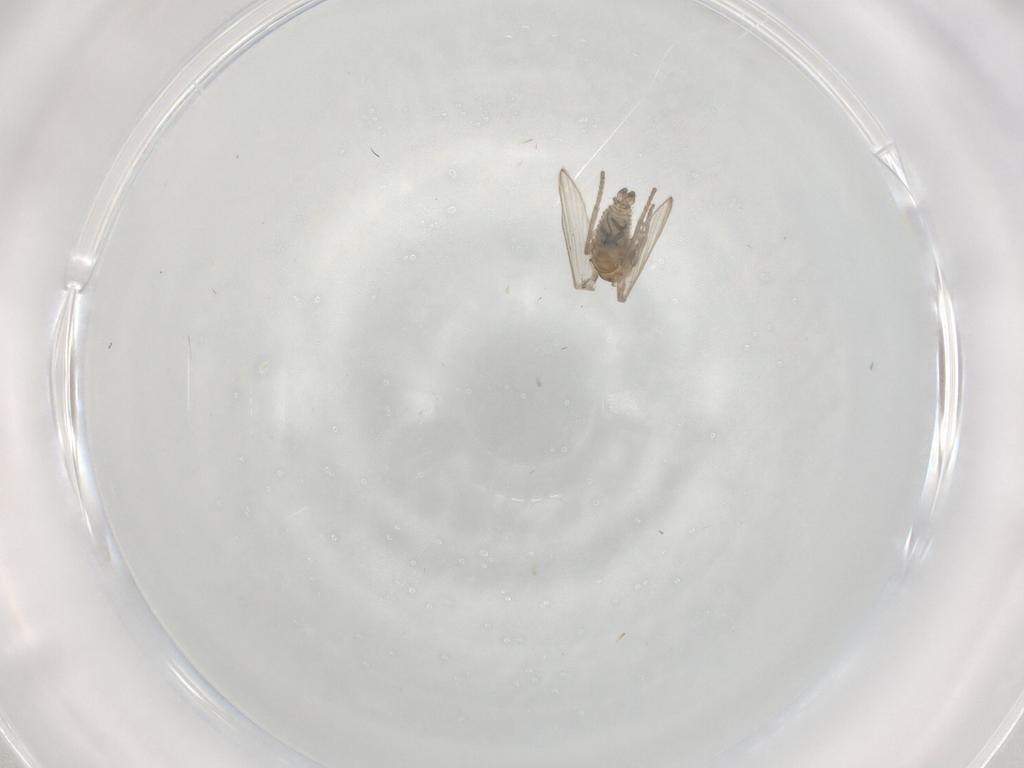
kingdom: Animalia
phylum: Arthropoda
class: Insecta
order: Diptera
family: Psychodidae
